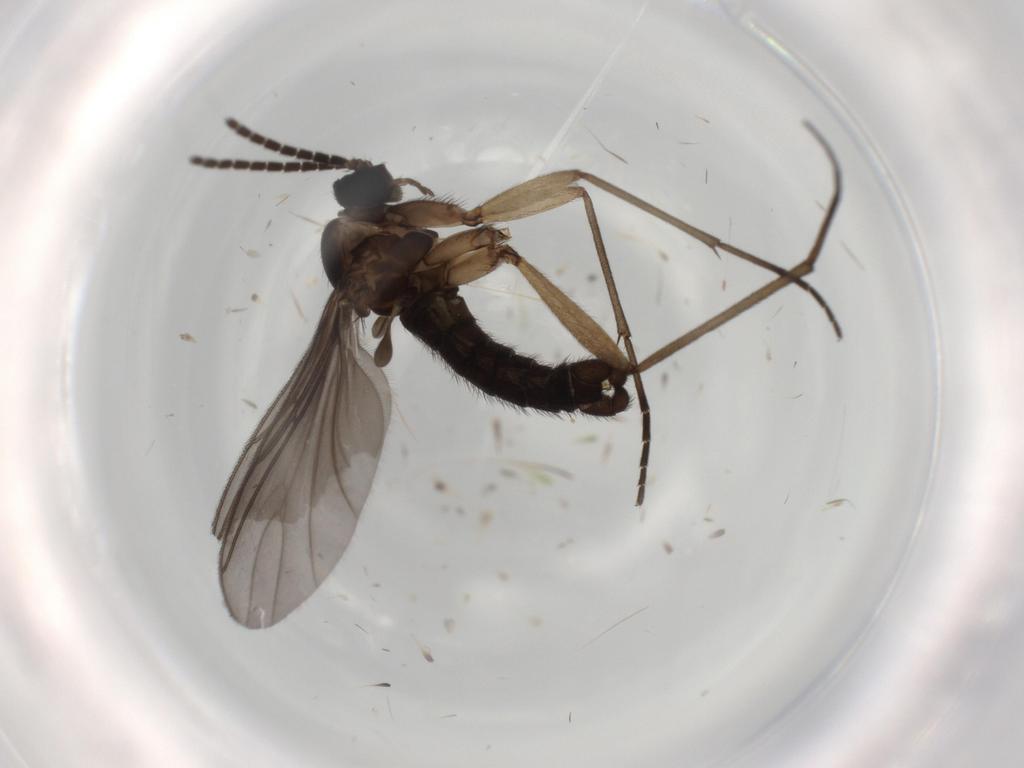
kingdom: Animalia
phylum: Arthropoda
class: Insecta
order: Diptera
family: Sciaridae
